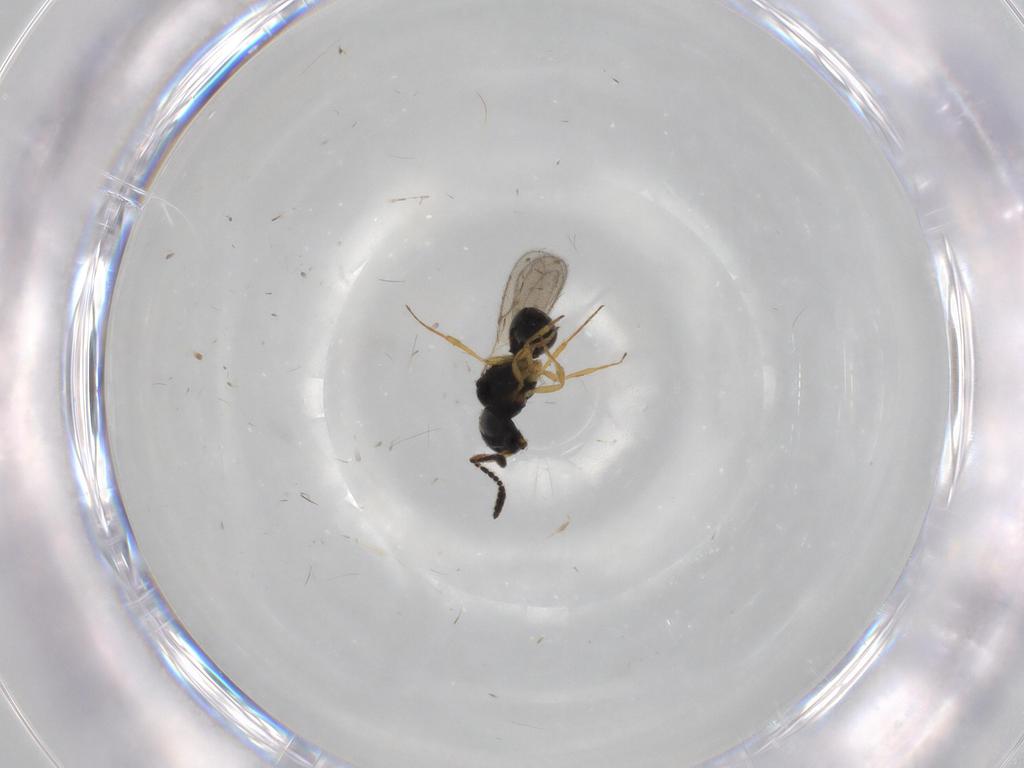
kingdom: Animalia
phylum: Arthropoda
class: Insecta
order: Hymenoptera
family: Scelionidae
